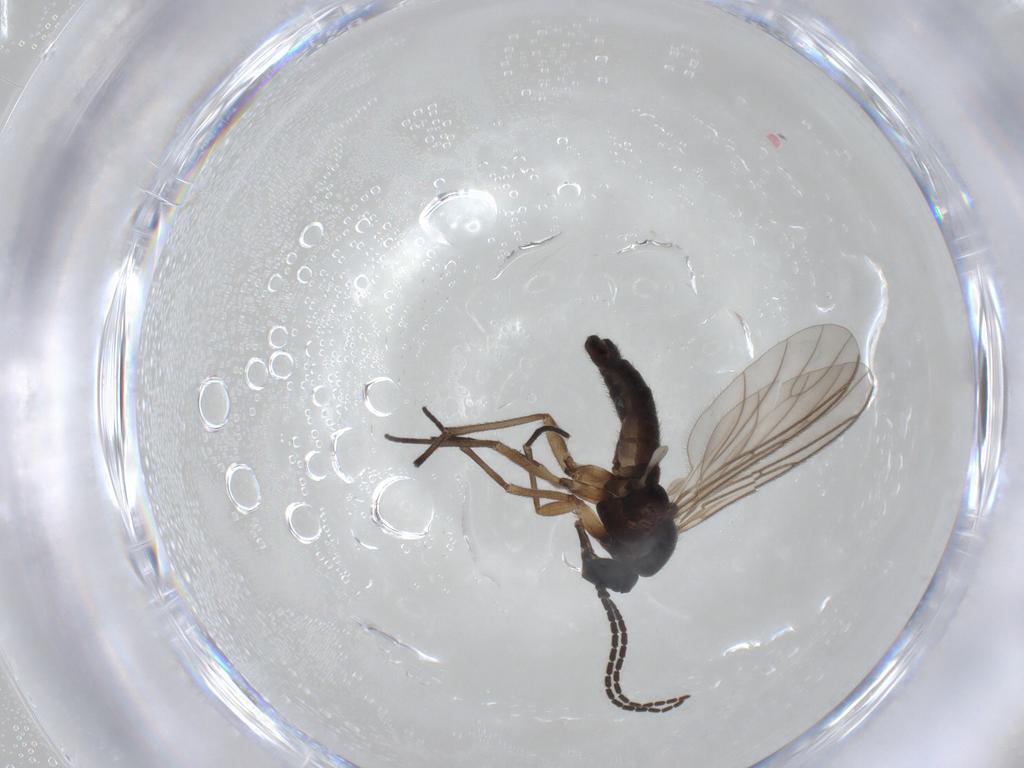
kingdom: Animalia
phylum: Arthropoda
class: Insecta
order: Diptera
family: Sciaridae
